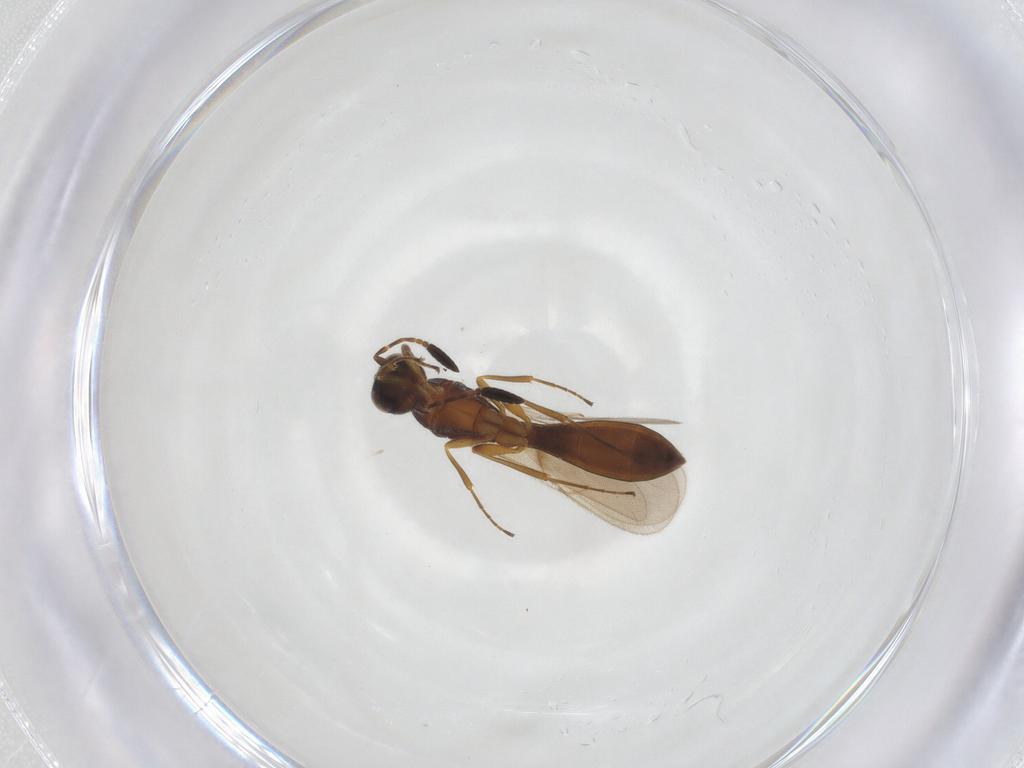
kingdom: Animalia
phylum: Arthropoda
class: Insecta
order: Hymenoptera
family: Scelionidae
